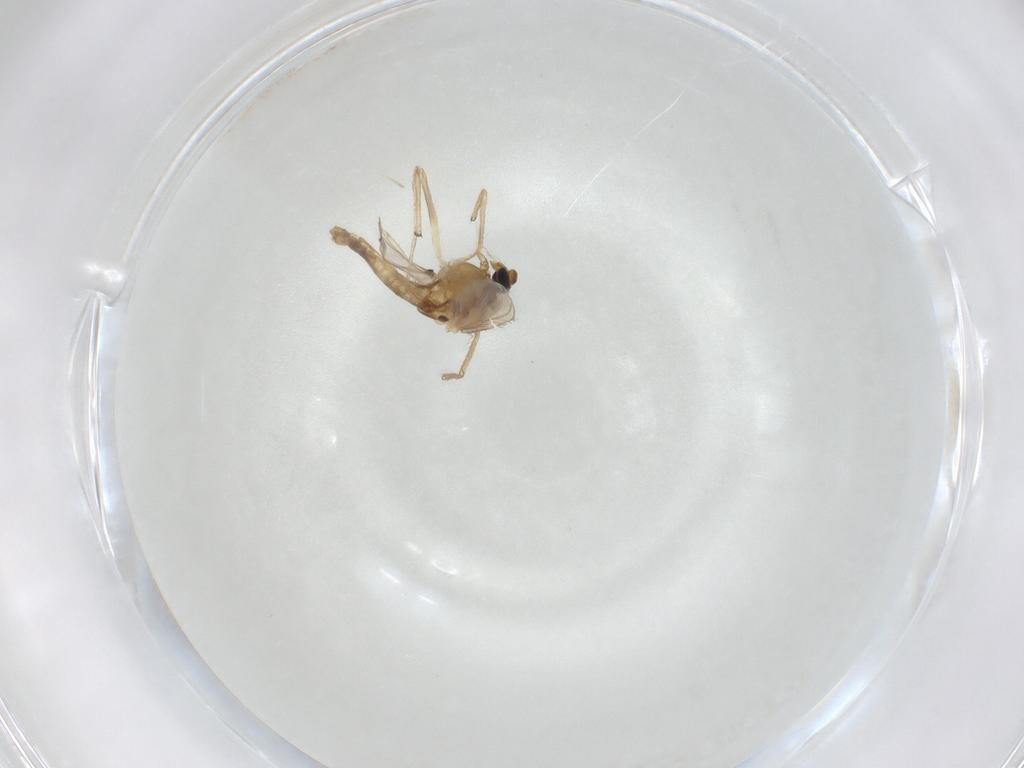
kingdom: Animalia
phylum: Arthropoda
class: Insecta
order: Diptera
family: Chironomidae
